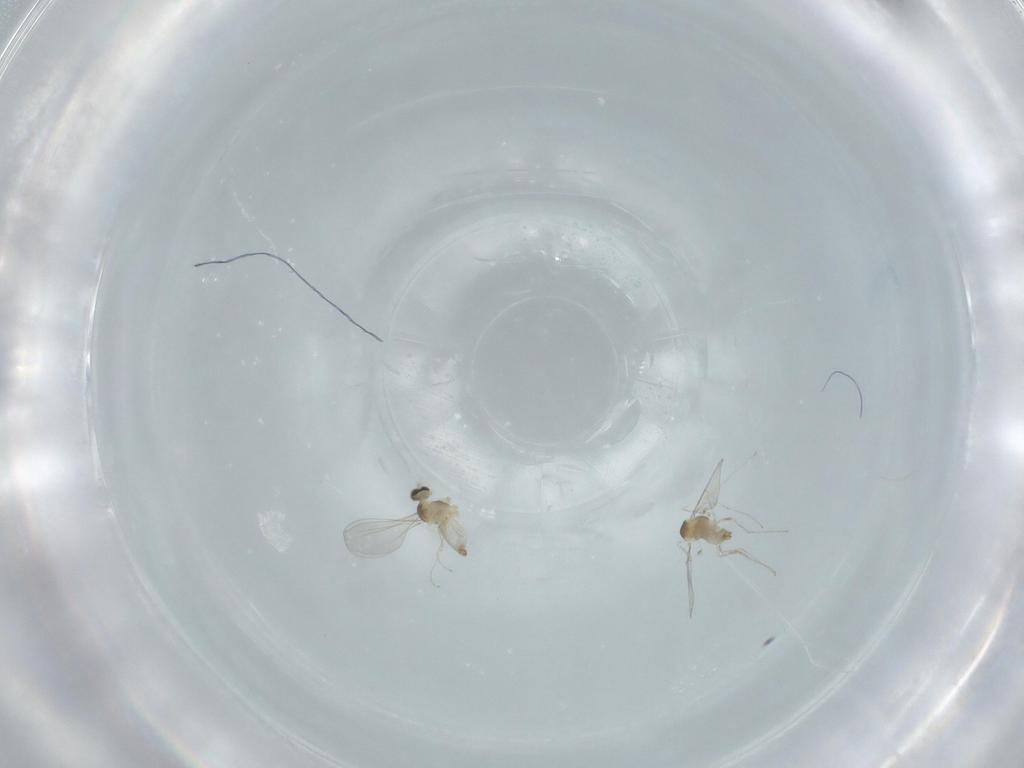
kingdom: Animalia
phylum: Arthropoda
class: Insecta
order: Diptera
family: Cecidomyiidae
